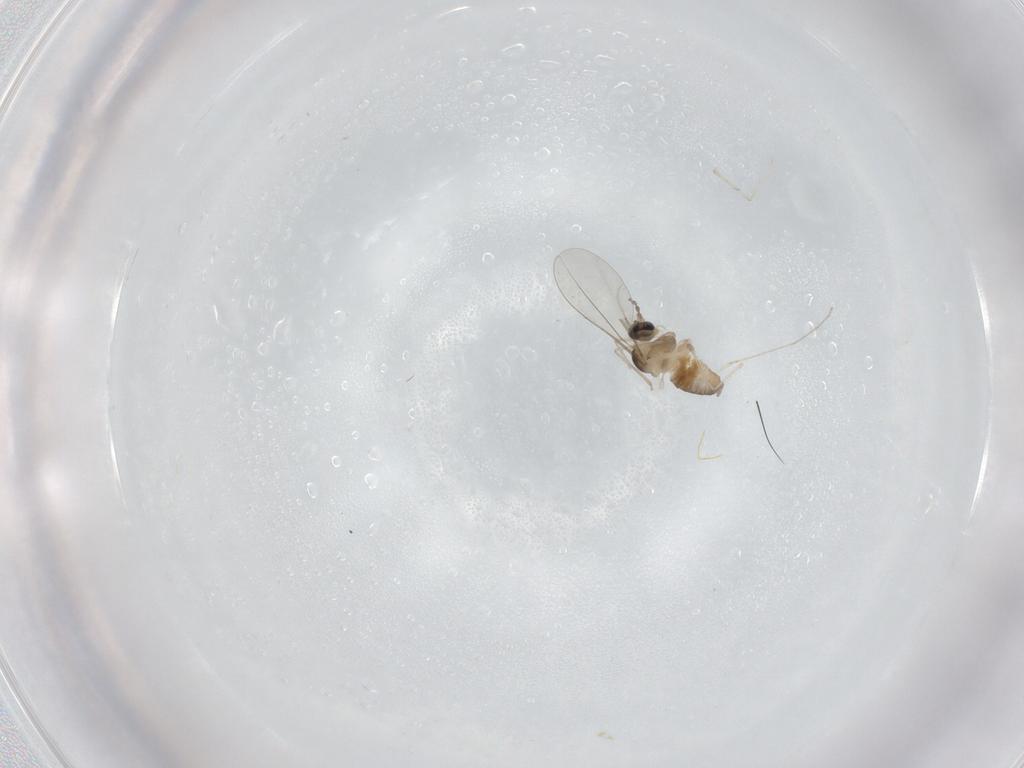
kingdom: Animalia
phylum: Arthropoda
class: Insecta
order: Diptera
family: Cecidomyiidae
